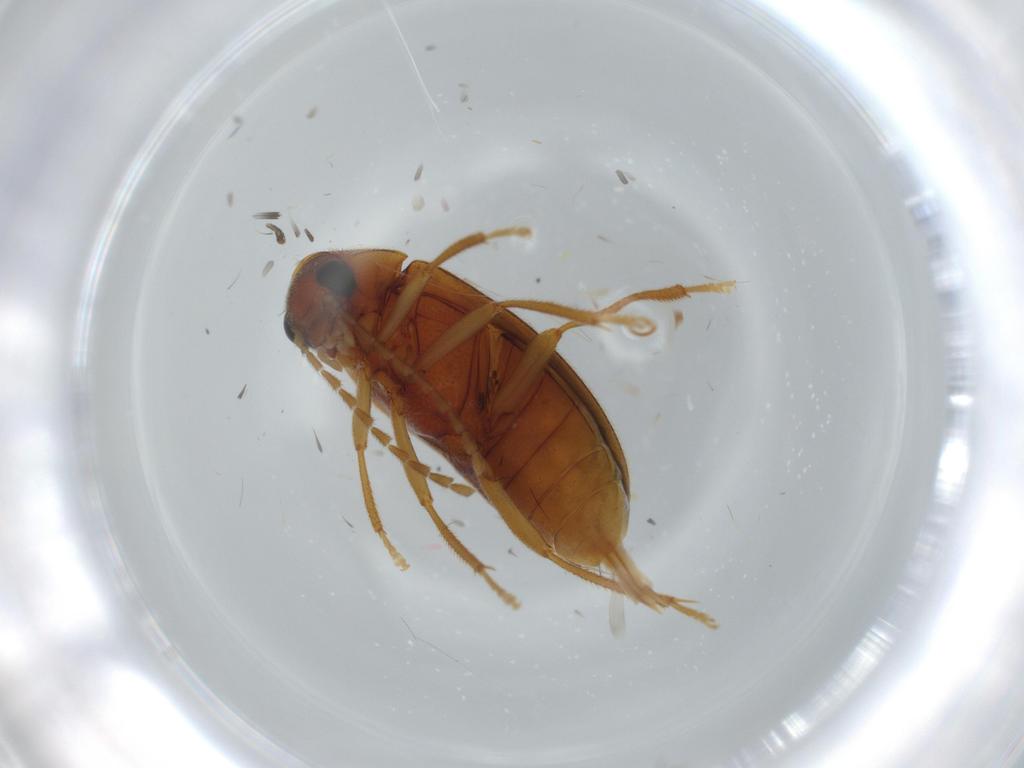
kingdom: Animalia
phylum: Arthropoda
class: Insecta
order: Coleoptera
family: Ptilodactylidae
